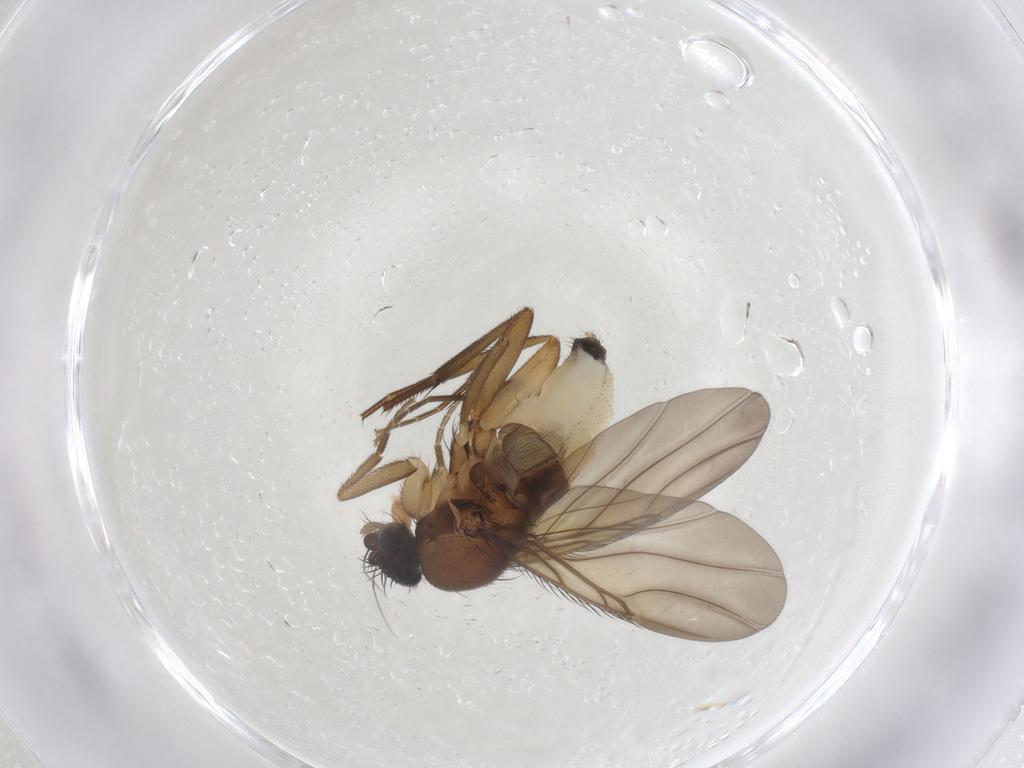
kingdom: Animalia
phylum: Arthropoda
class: Insecta
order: Diptera
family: Phoridae
